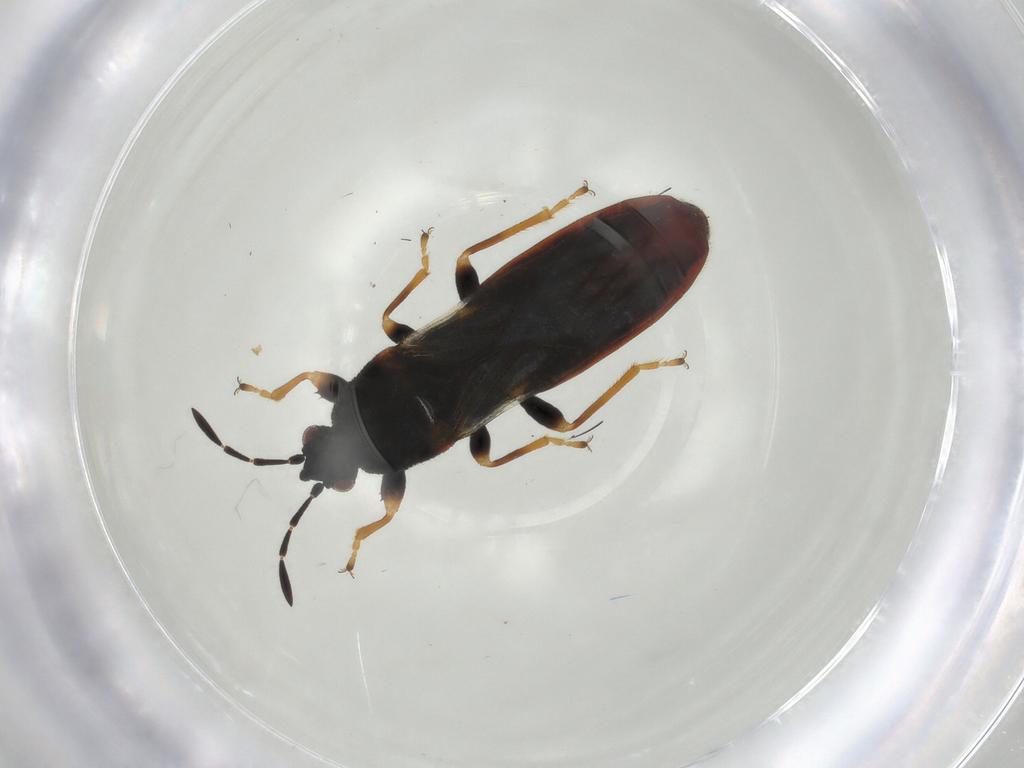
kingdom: Animalia
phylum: Arthropoda
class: Insecta
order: Hemiptera
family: Blissidae
